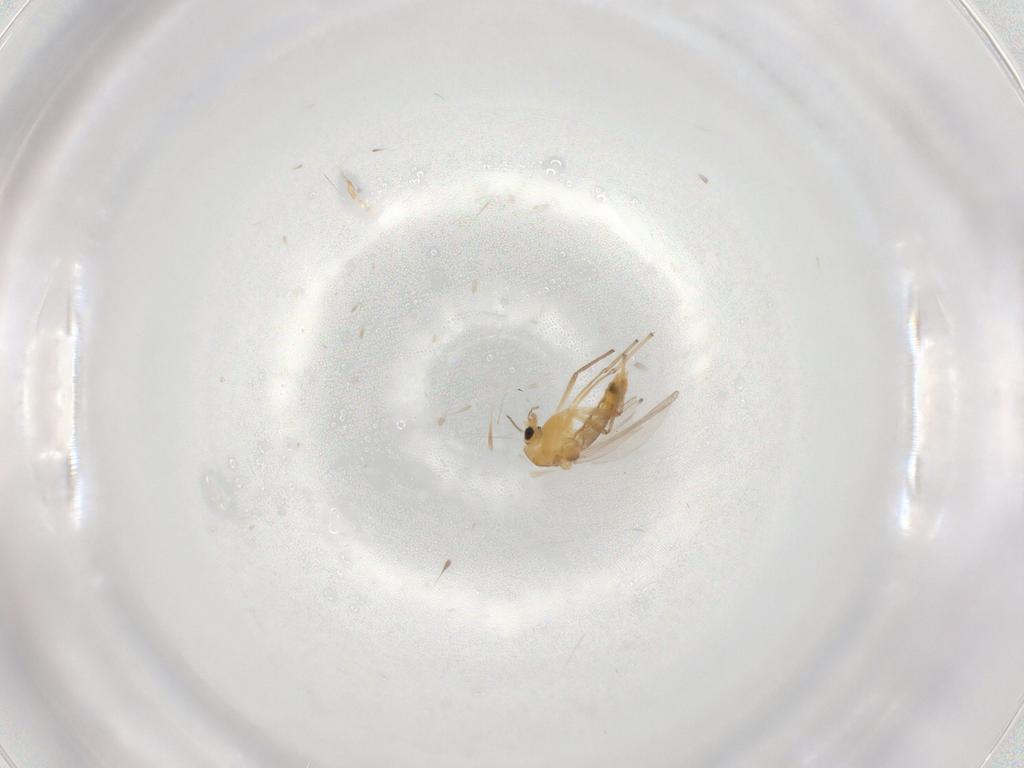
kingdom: Animalia
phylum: Arthropoda
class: Insecta
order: Diptera
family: Chironomidae
